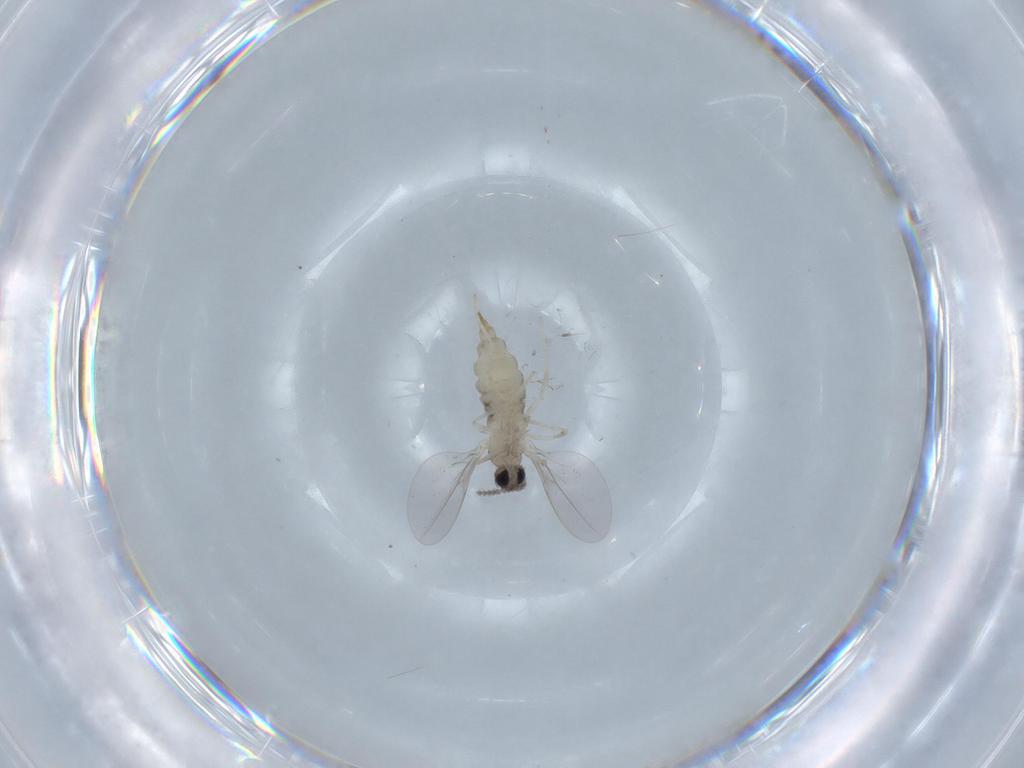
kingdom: Animalia
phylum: Arthropoda
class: Insecta
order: Diptera
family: Cecidomyiidae
